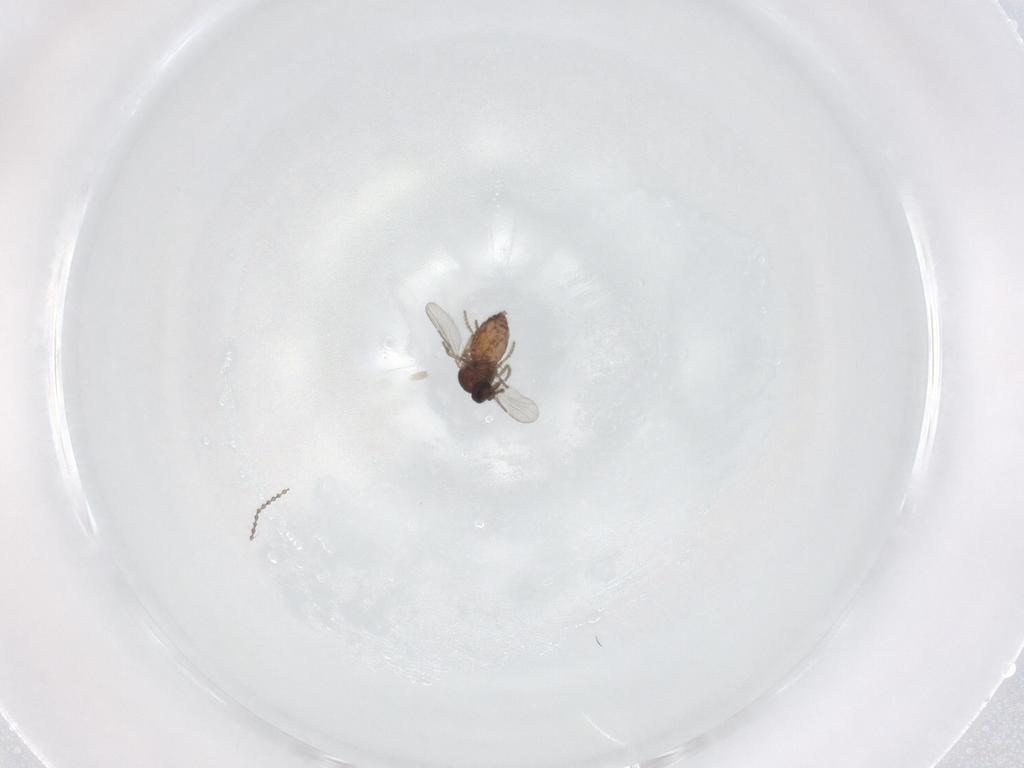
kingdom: Animalia
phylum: Arthropoda
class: Insecta
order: Diptera
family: Ceratopogonidae
